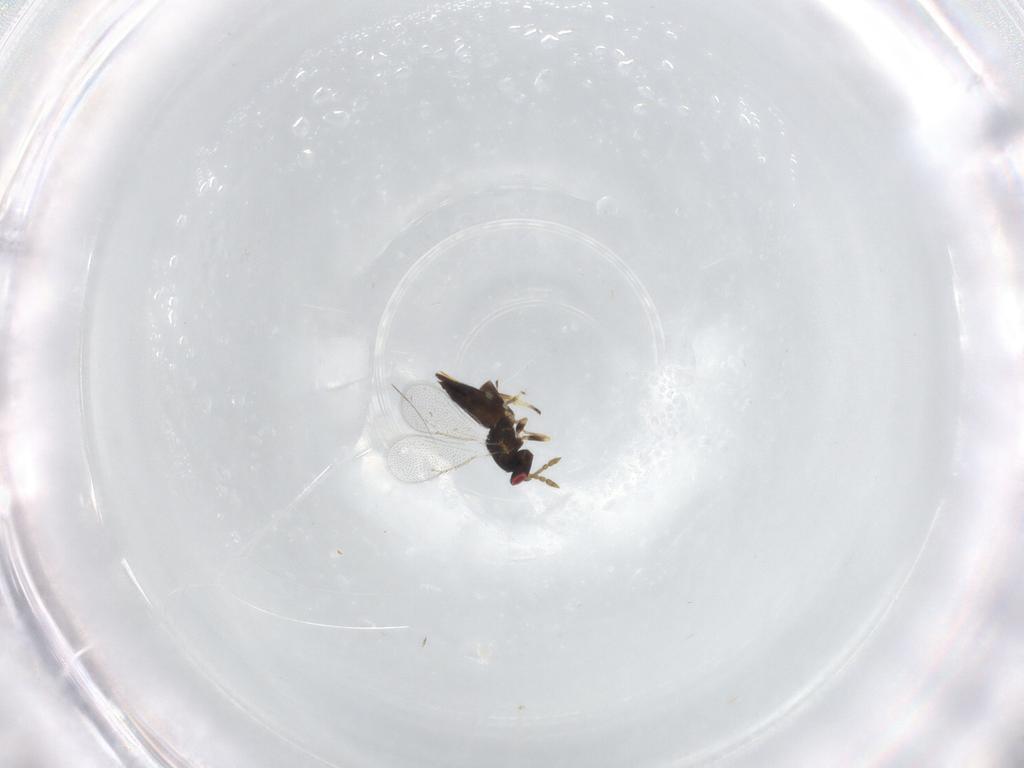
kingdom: Animalia
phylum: Arthropoda
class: Insecta
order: Hymenoptera
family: Eulophidae
